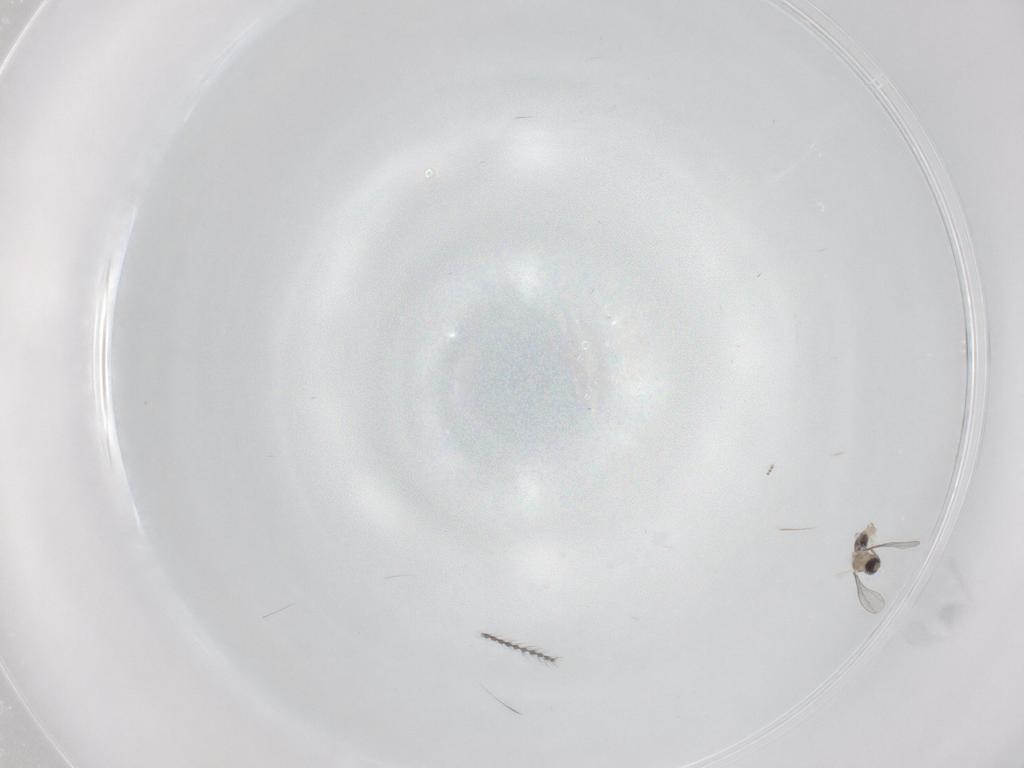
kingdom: Animalia
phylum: Arthropoda
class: Insecta
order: Diptera
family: Cecidomyiidae
